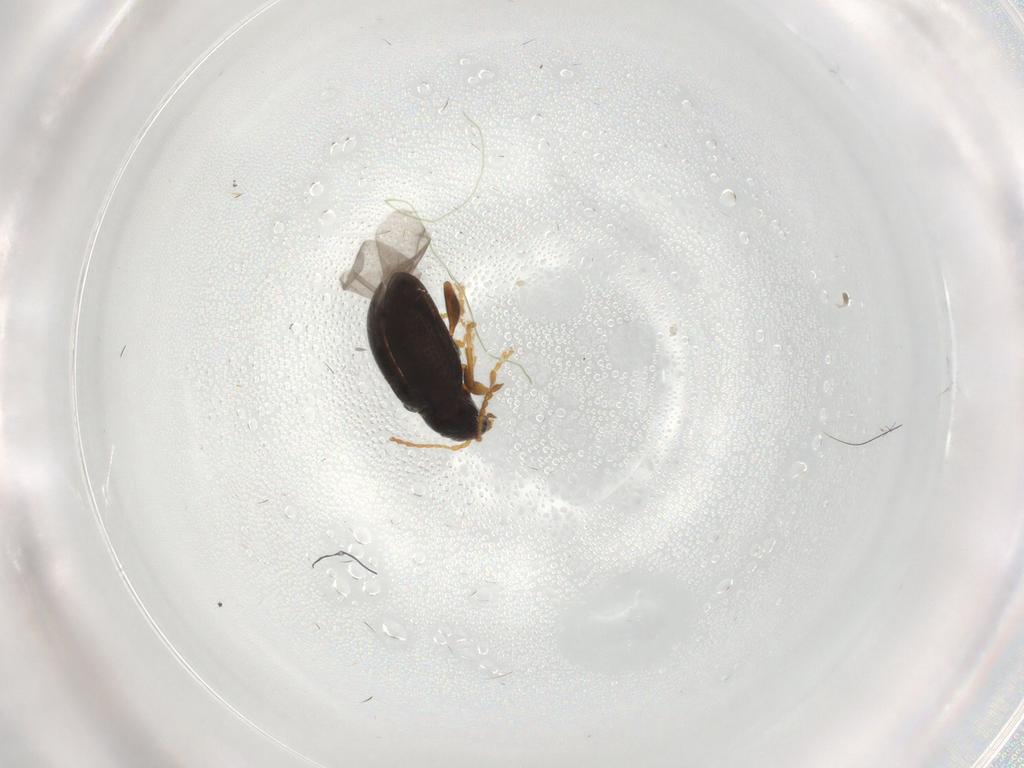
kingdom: Animalia
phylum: Arthropoda
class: Insecta
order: Coleoptera
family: Chrysomelidae
